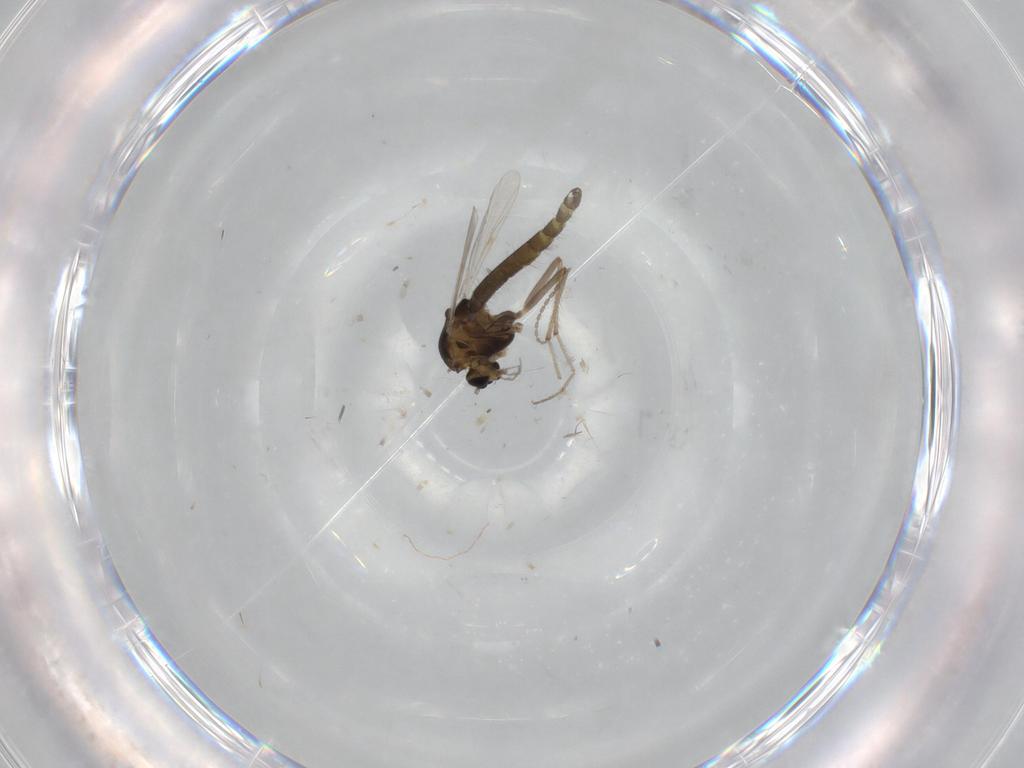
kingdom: Animalia
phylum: Arthropoda
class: Insecta
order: Diptera
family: Chironomidae
